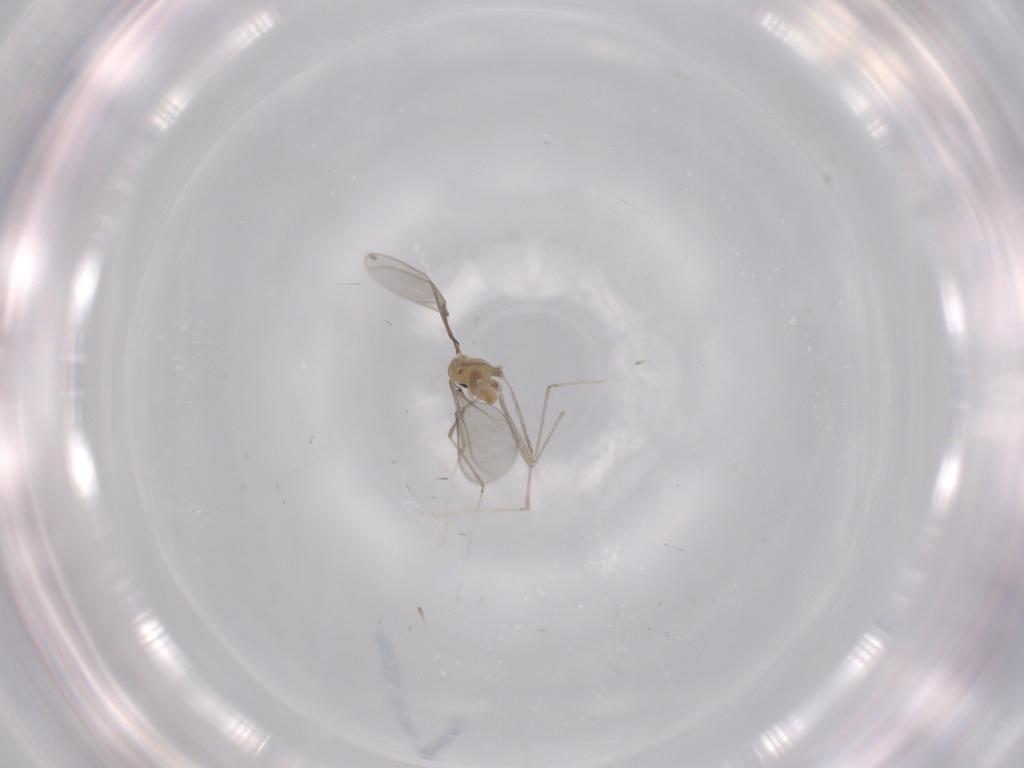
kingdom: Animalia
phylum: Arthropoda
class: Insecta
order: Diptera
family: Cecidomyiidae
